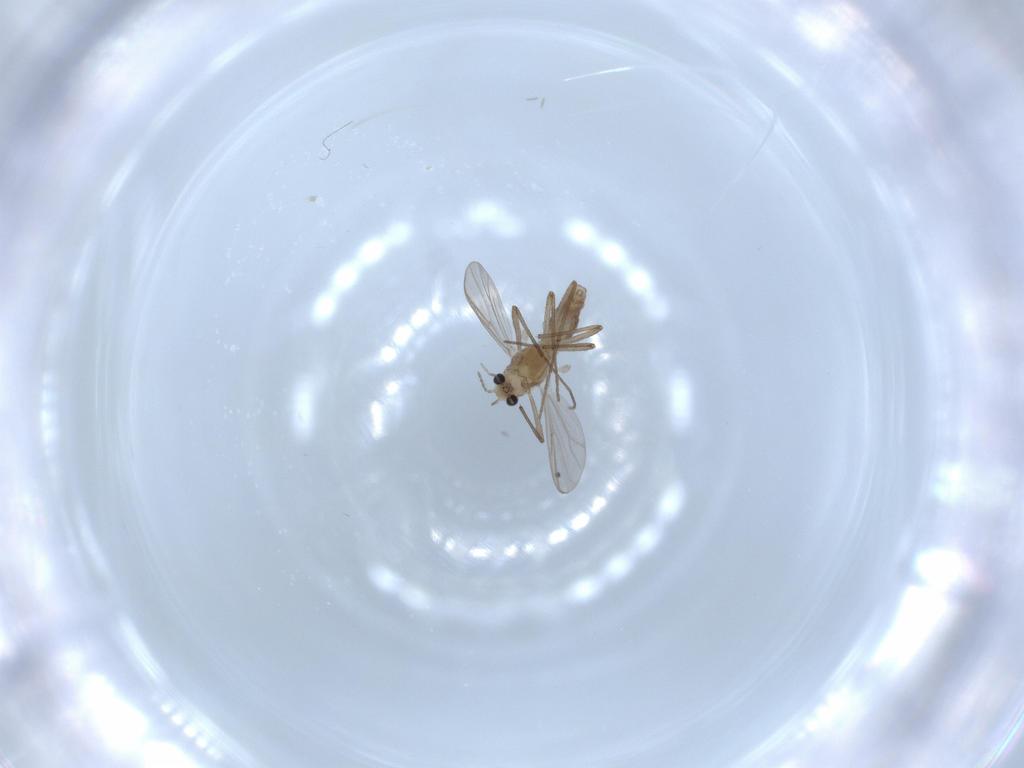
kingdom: Animalia
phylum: Arthropoda
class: Insecta
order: Diptera
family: Chironomidae
